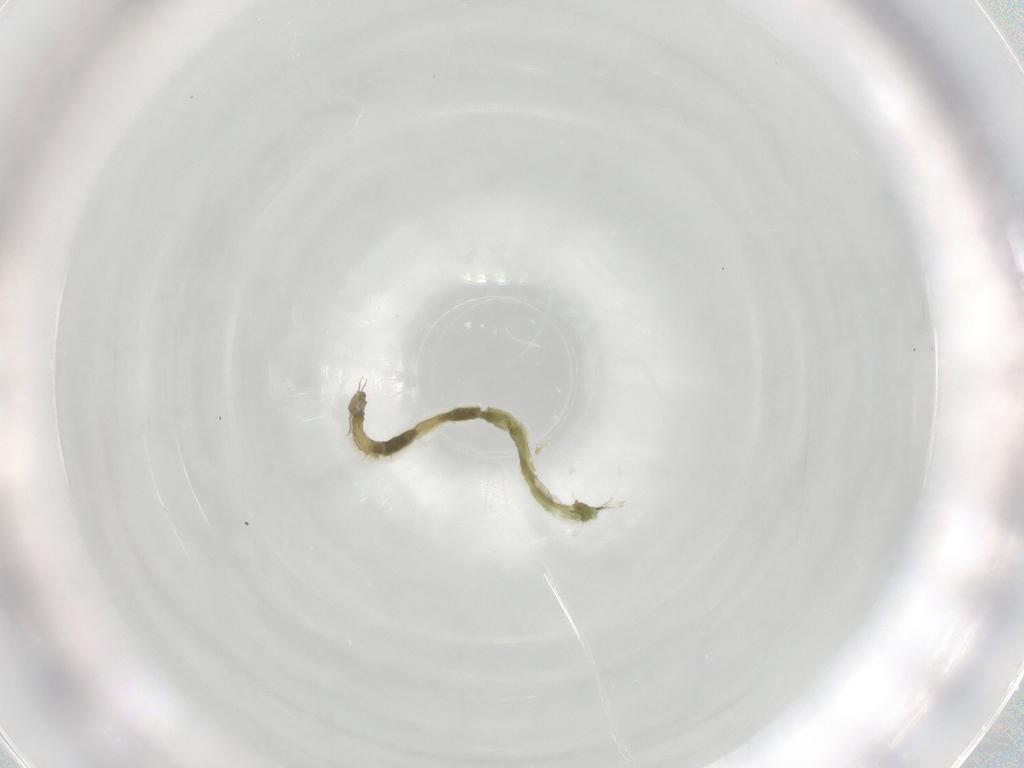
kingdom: Animalia
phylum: Arthropoda
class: Insecta
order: Diptera
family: Chironomidae
